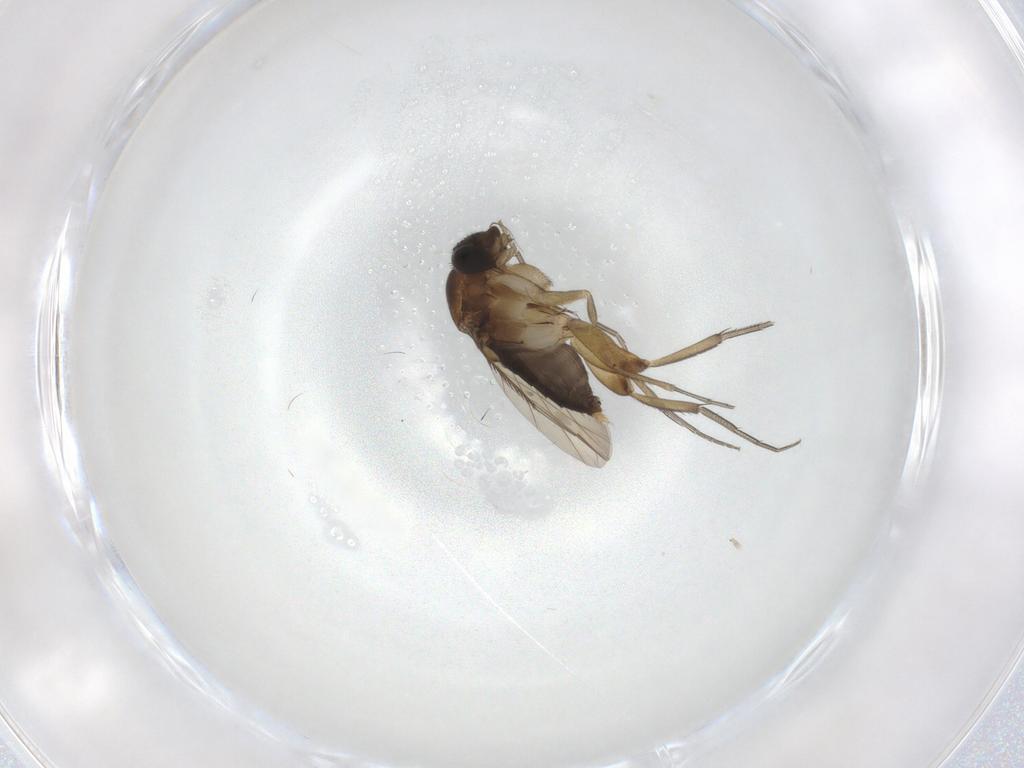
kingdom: Animalia
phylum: Arthropoda
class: Insecta
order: Diptera
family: Phoridae
